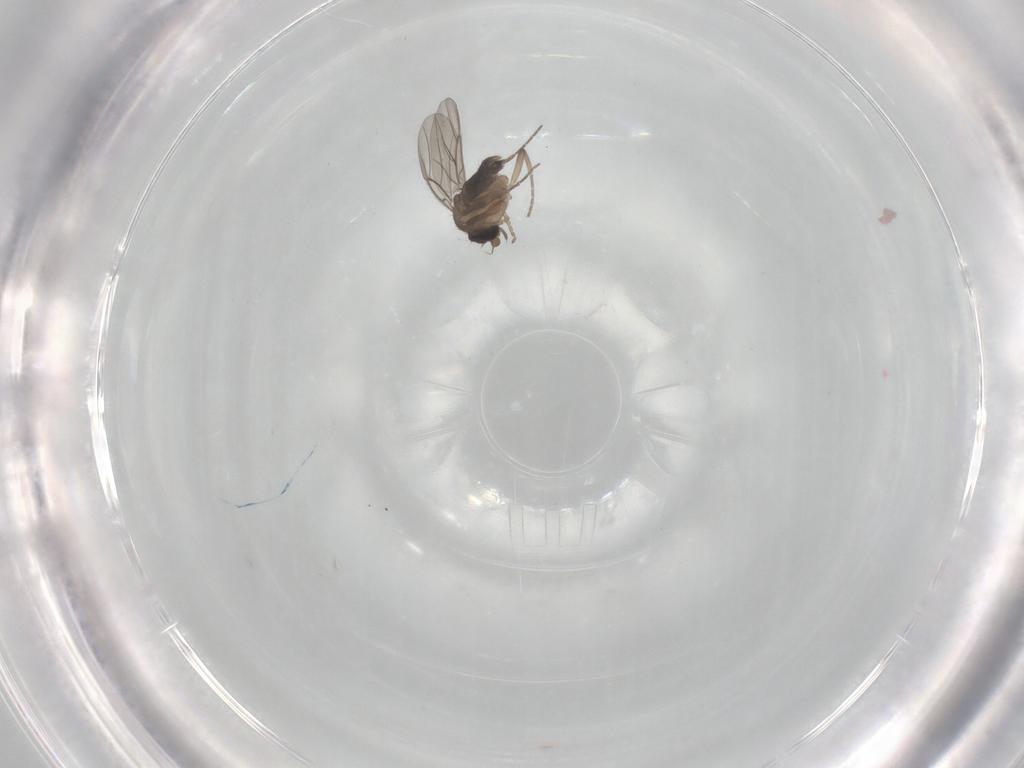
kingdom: Animalia
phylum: Arthropoda
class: Insecta
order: Diptera
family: Phoridae
